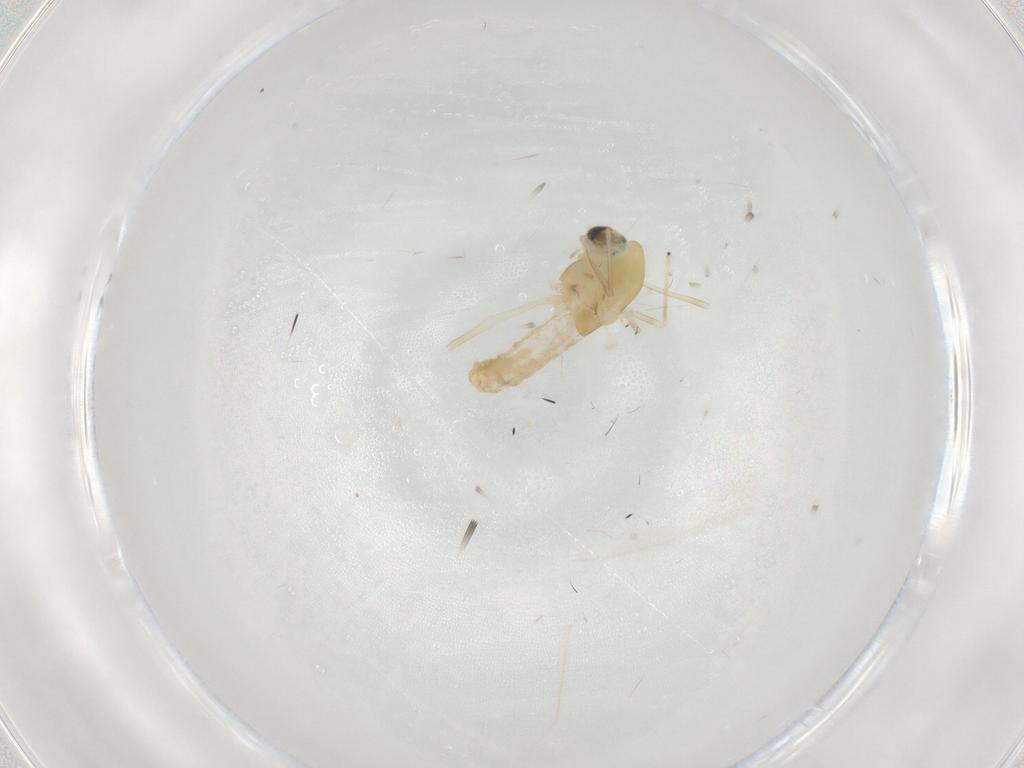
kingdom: Animalia
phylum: Arthropoda
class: Insecta
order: Diptera
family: Chironomidae
